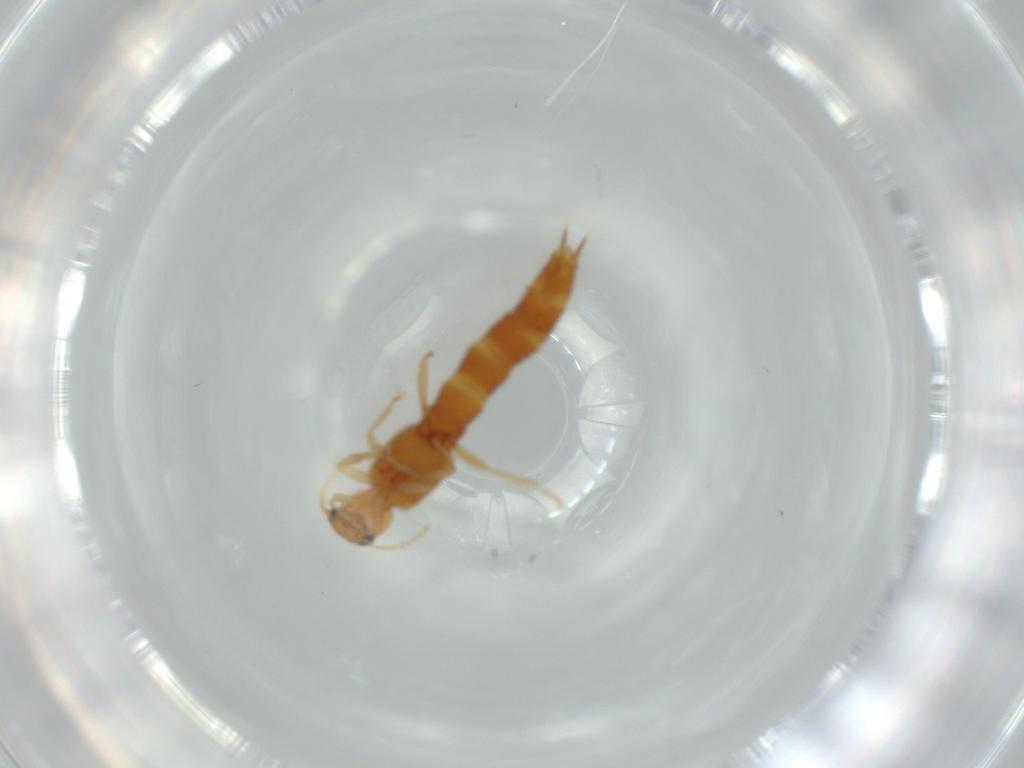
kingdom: Animalia
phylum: Arthropoda
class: Insecta
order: Coleoptera
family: Staphylinidae
